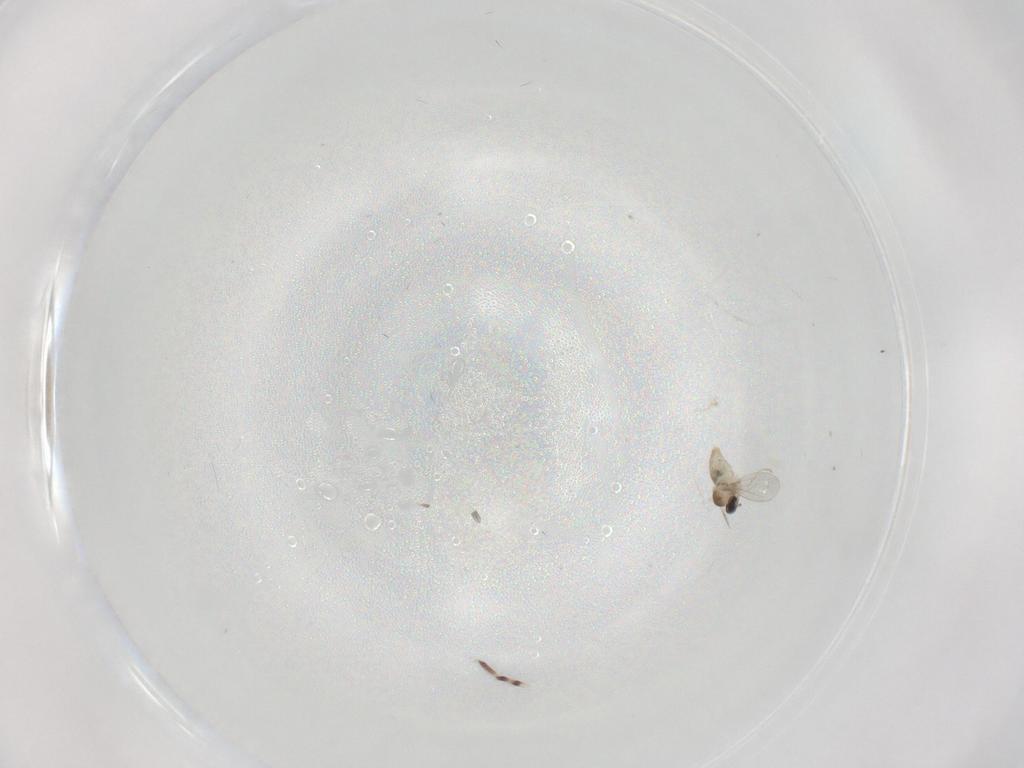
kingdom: Animalia
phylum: Arthropoda
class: Insecta
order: Diptera
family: Cecidomyiidae
